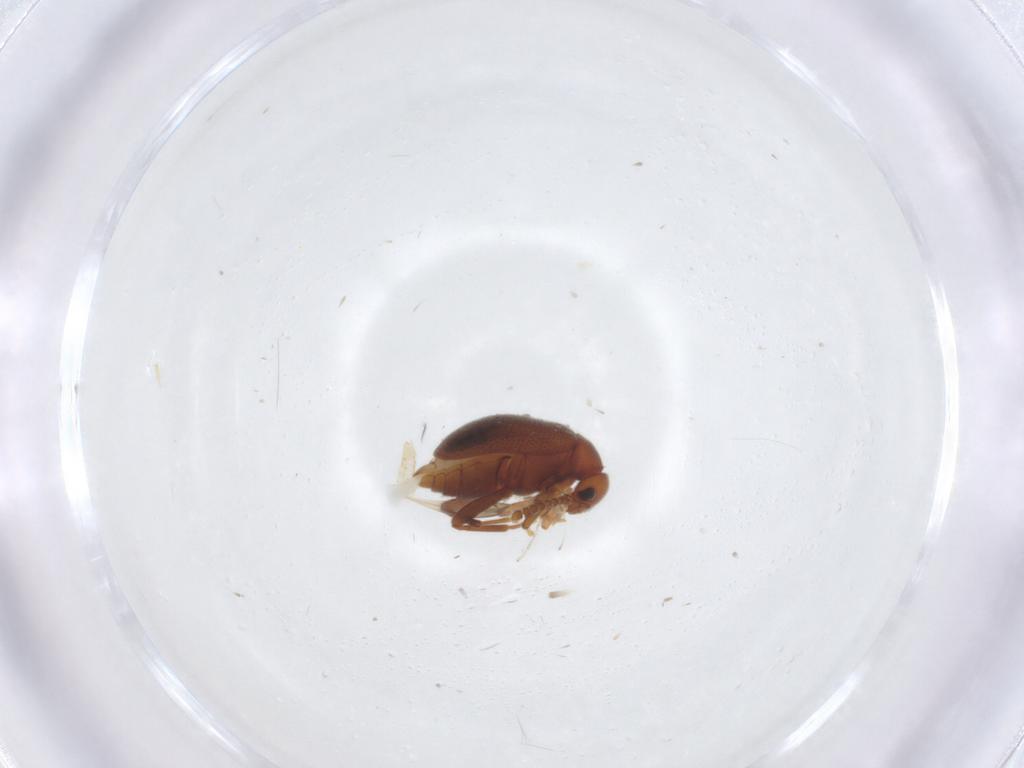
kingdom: Animalia
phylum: Arthropoda
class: Insecta
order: Coleoptera
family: Aderidae
